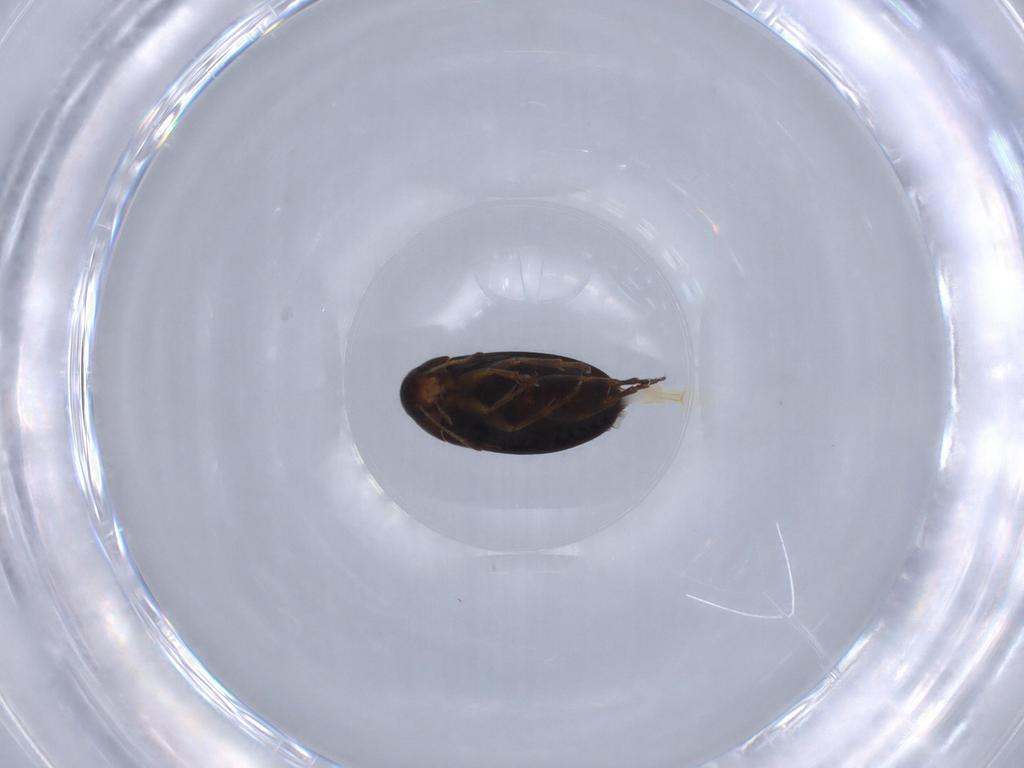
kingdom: Animalia
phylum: Arthropoda
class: Insecta
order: Coleoptera
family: Scraptiidae
